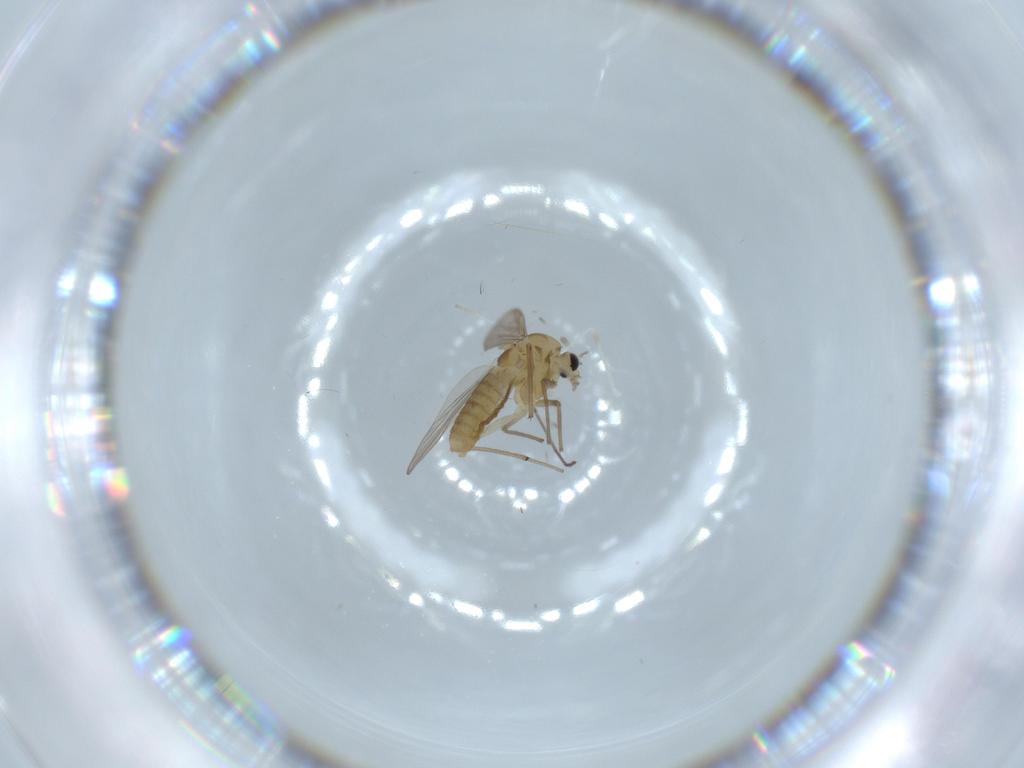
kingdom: Animalia
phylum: Arthropoda
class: Insecta
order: Diptera
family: Chironomidae
